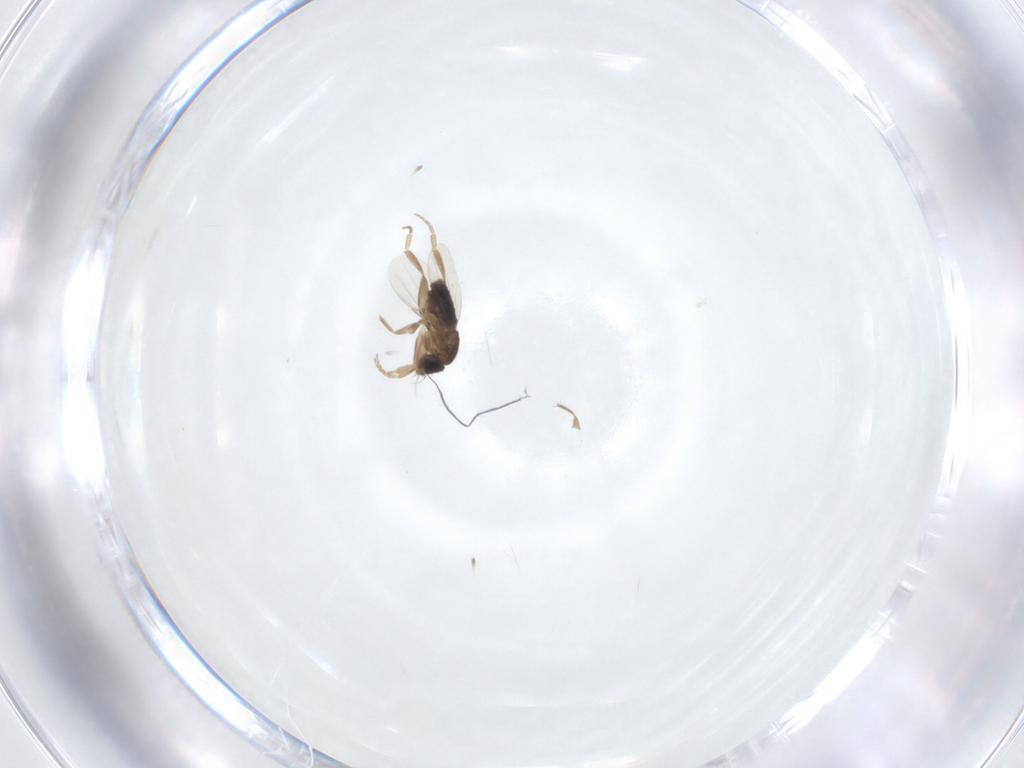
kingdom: Animalia
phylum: Arthropoda
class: Insecta
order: Diptera
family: Phoridae
